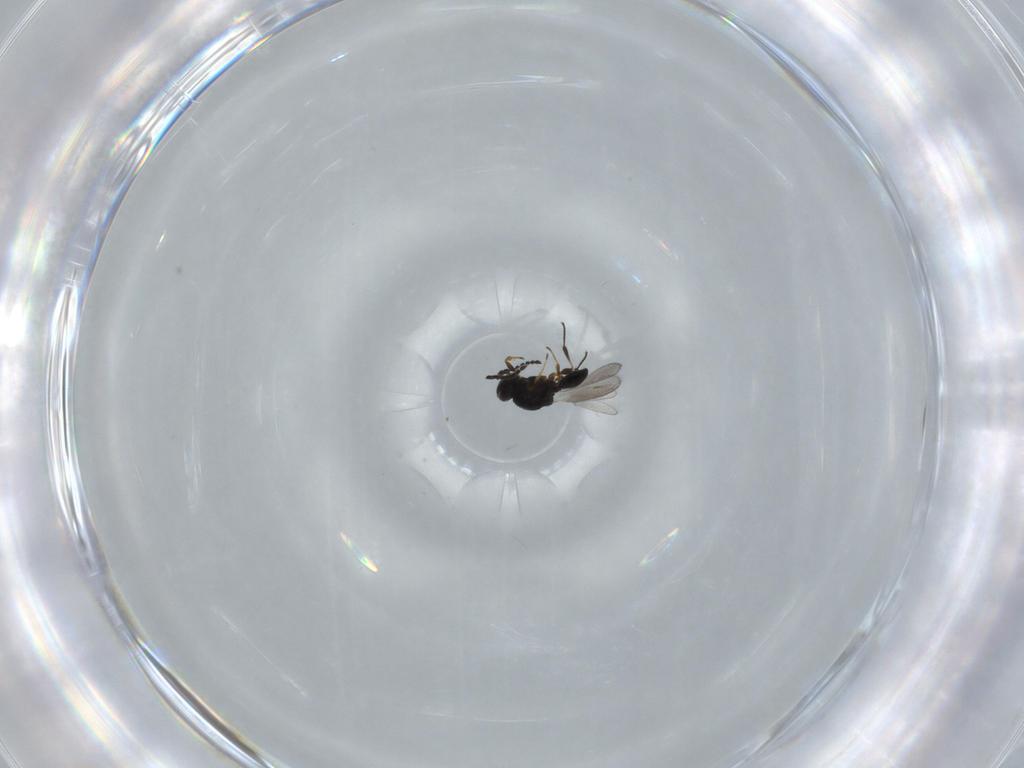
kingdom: Animalia
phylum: Arthropoda
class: Insecta
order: Hymenoptera
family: Platygastridae
